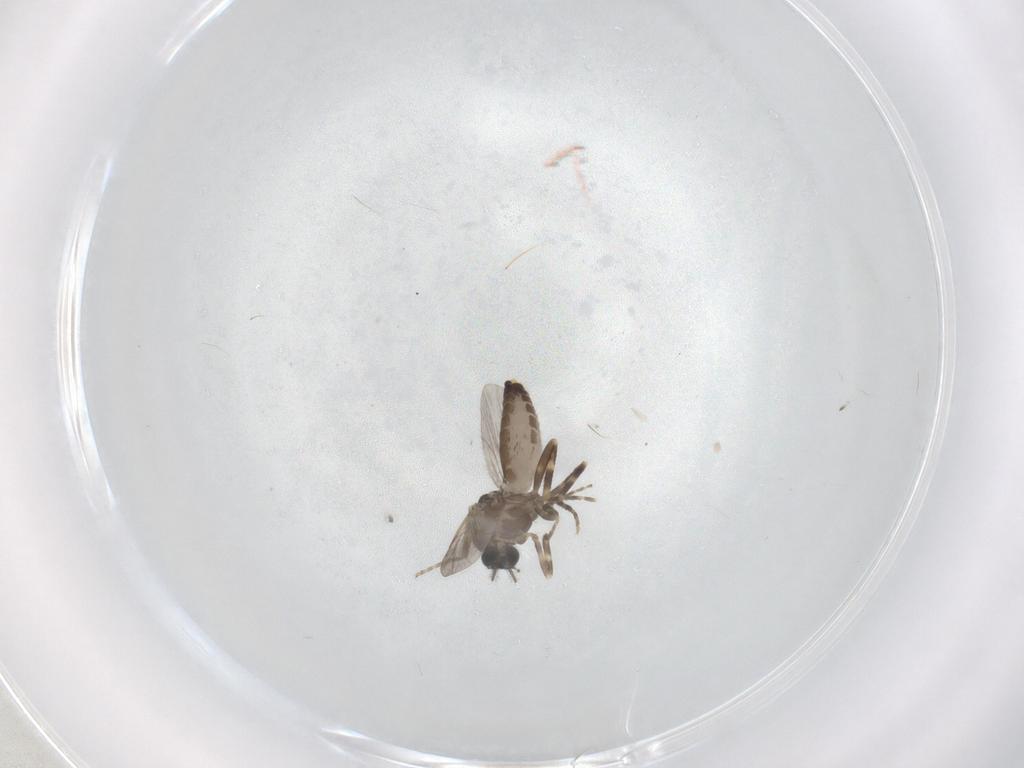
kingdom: Animalia
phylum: Arthropoda
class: Insecta
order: Diptera
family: Ceratopogonidae
